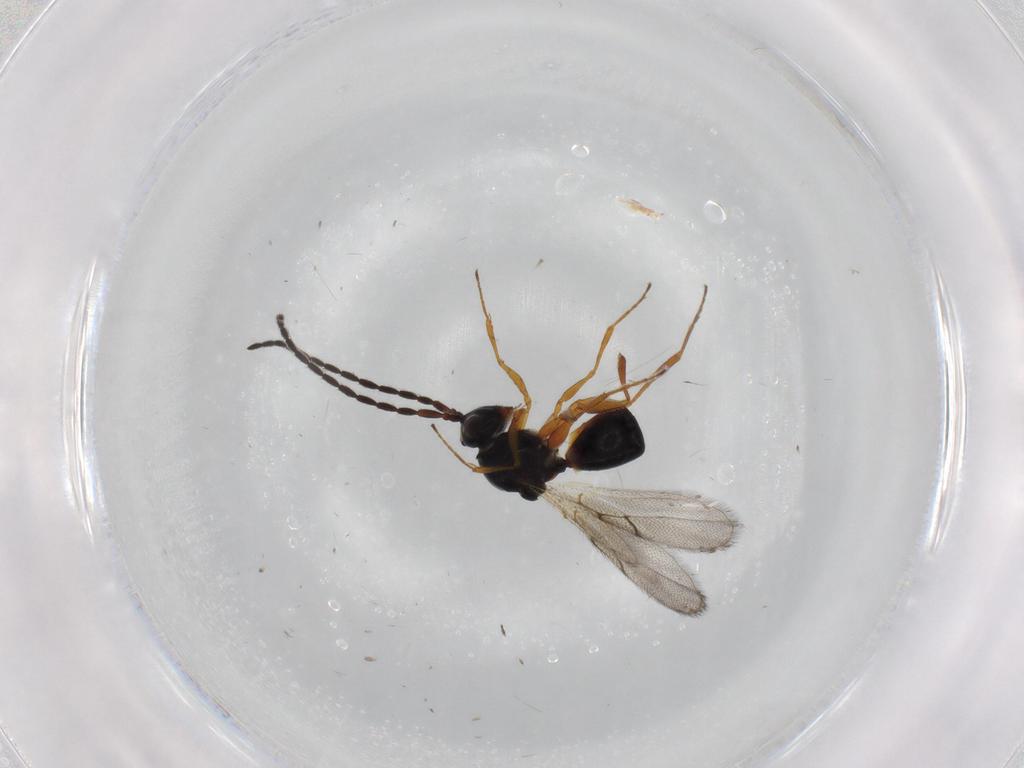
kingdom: Animalia
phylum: Arthropoda
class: Insecta
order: Hymenoptera
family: Figitidae
